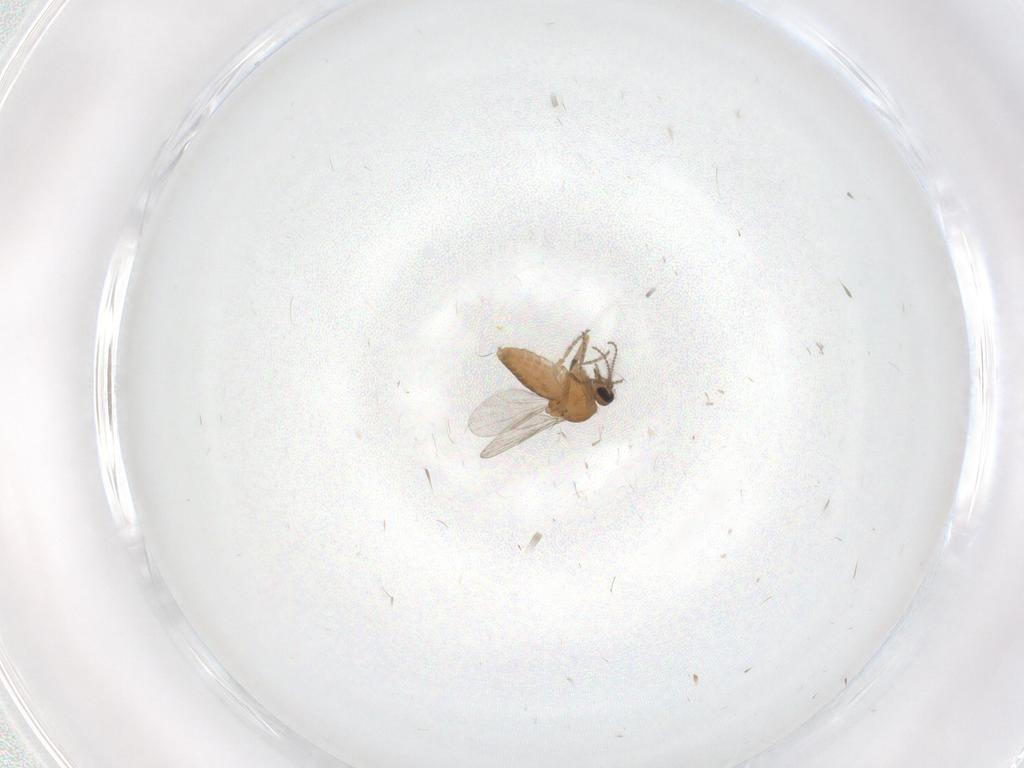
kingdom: Animalia
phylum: Arthropoda
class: Insecta
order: Diptera
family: Ceratopogonidae
